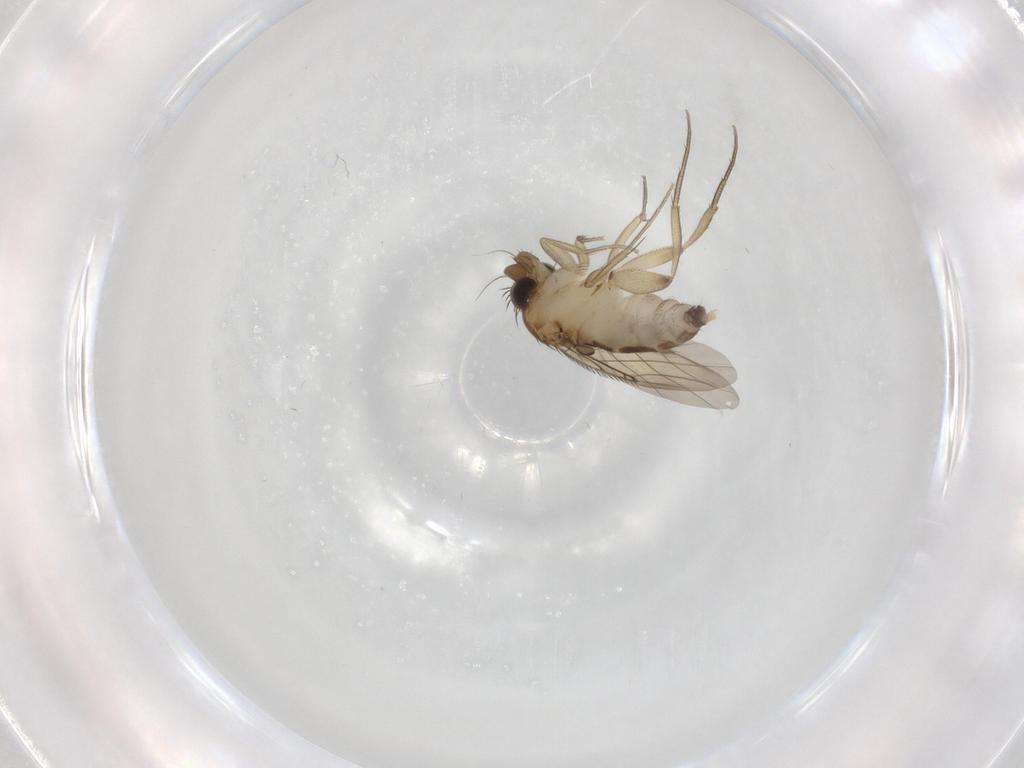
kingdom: Animalia
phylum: Arthropoda
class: Insecta
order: Diptera
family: Phoridae
